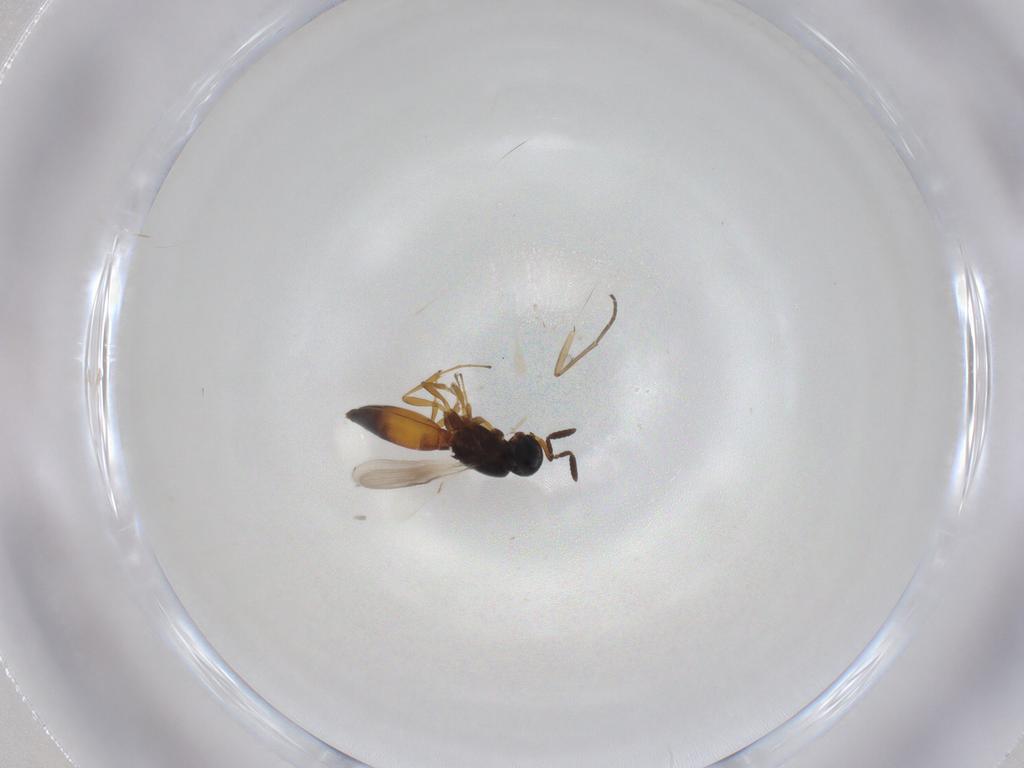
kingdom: Animalia
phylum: Arthropoda
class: Insecta
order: Hymenoptera
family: Scelionidae
